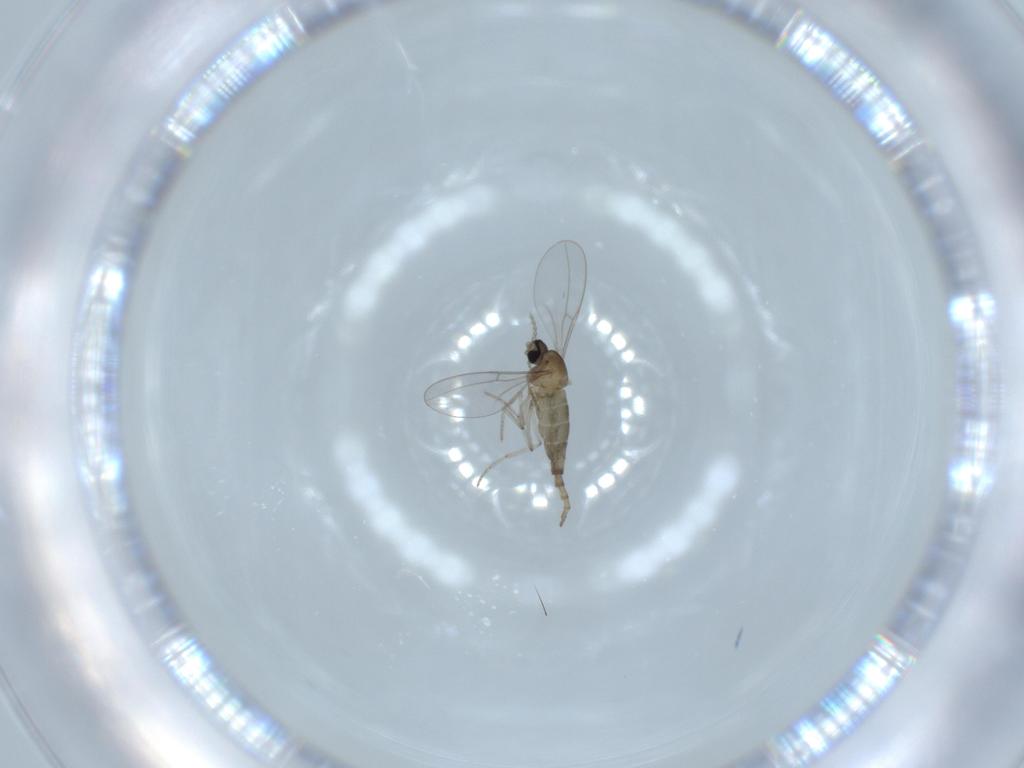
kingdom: Animalia
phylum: Arthropoda
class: Insecta
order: Diptera
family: Cecidomyiidae
